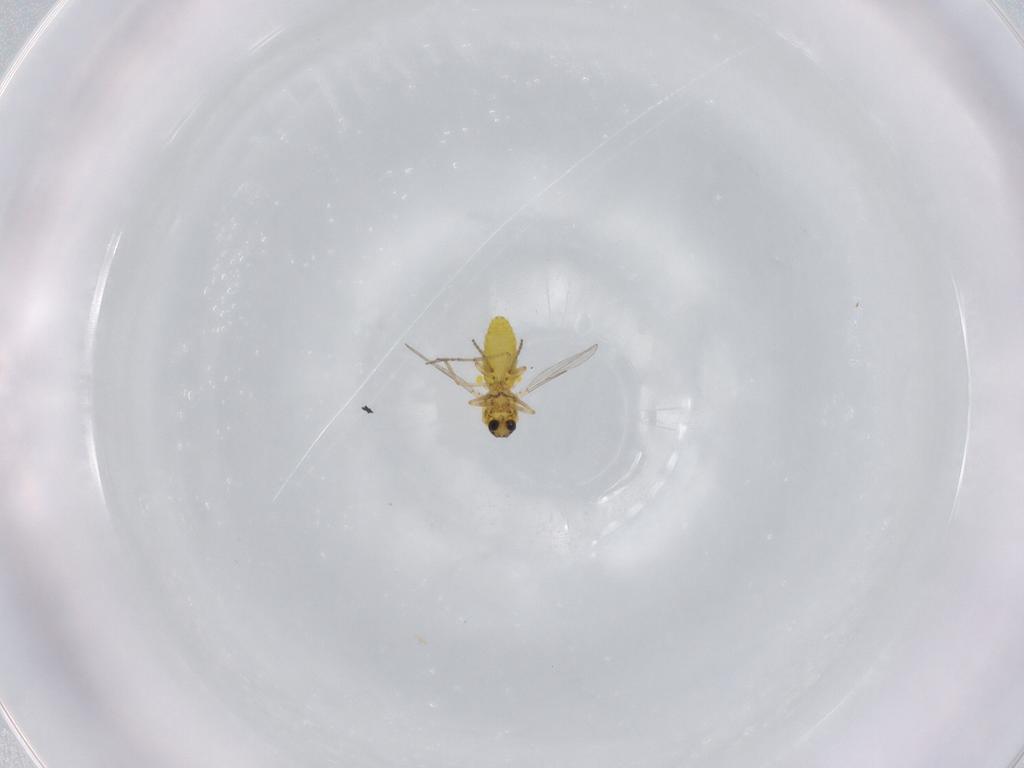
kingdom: Animalia
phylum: Arthropoda
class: Insecta
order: Diptera
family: Ceratopogonidae
